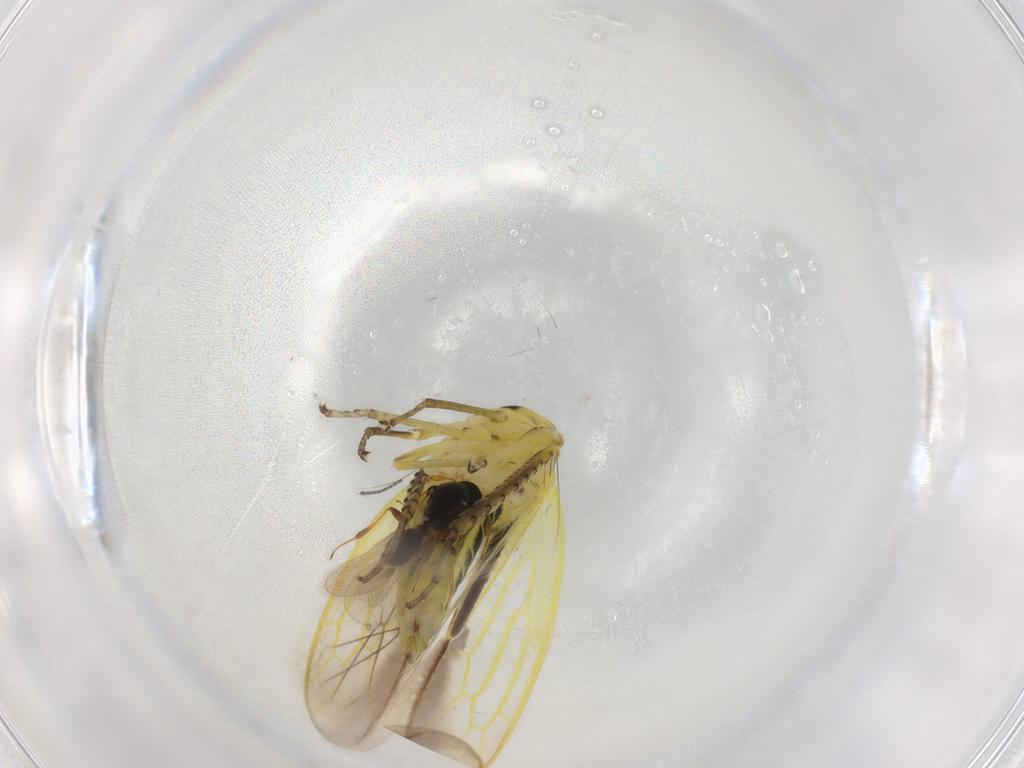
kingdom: Animalia
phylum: Arthropoda
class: Insecta
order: Hemiptera
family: Cicadellidae
